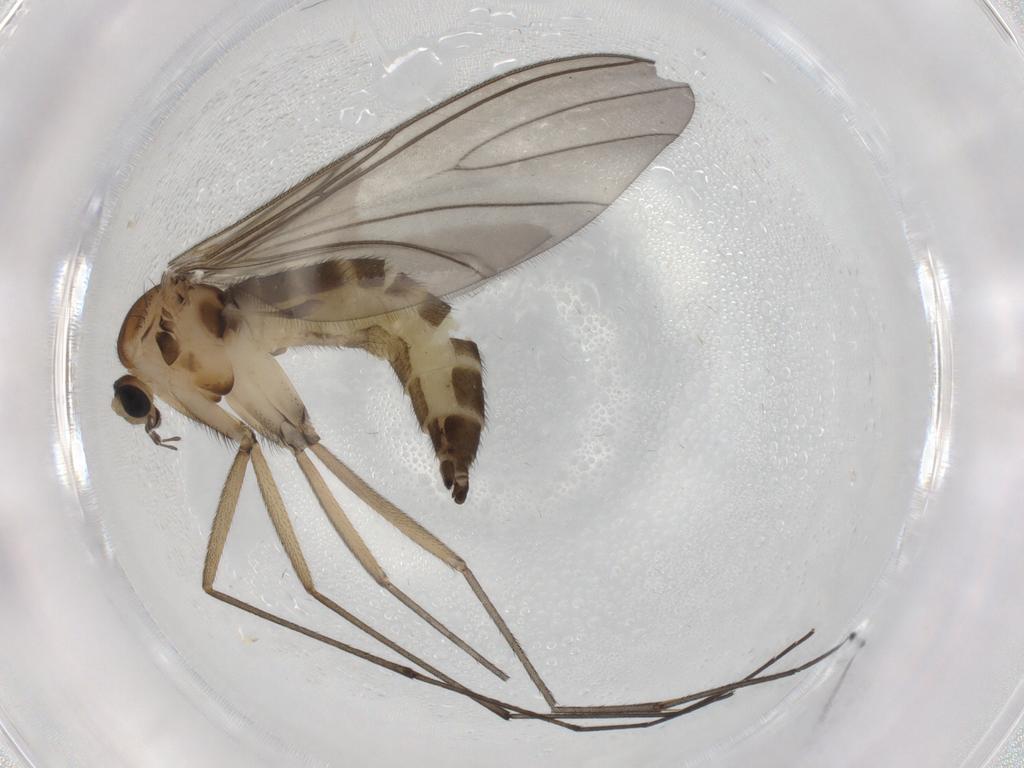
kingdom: Animalia
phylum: Arthropoda
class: Insecta
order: Diptera
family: Sciaridae
